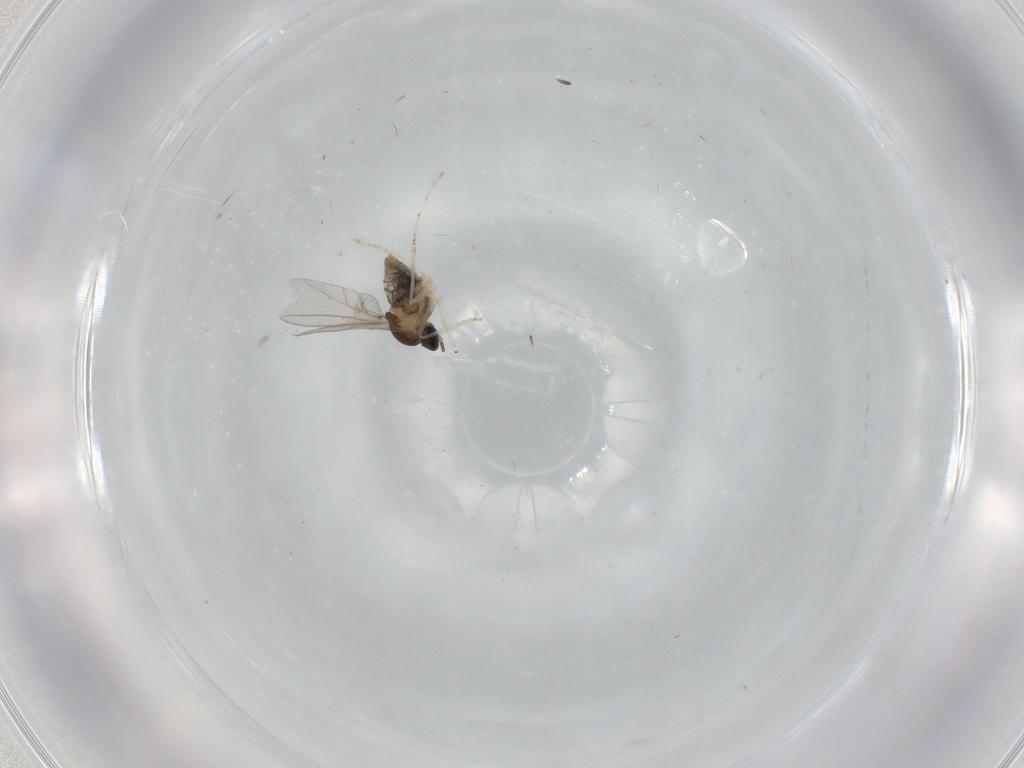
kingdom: Animalia
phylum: Arthropoda
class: Insecta
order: Diptera
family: Cecidomyiidae
